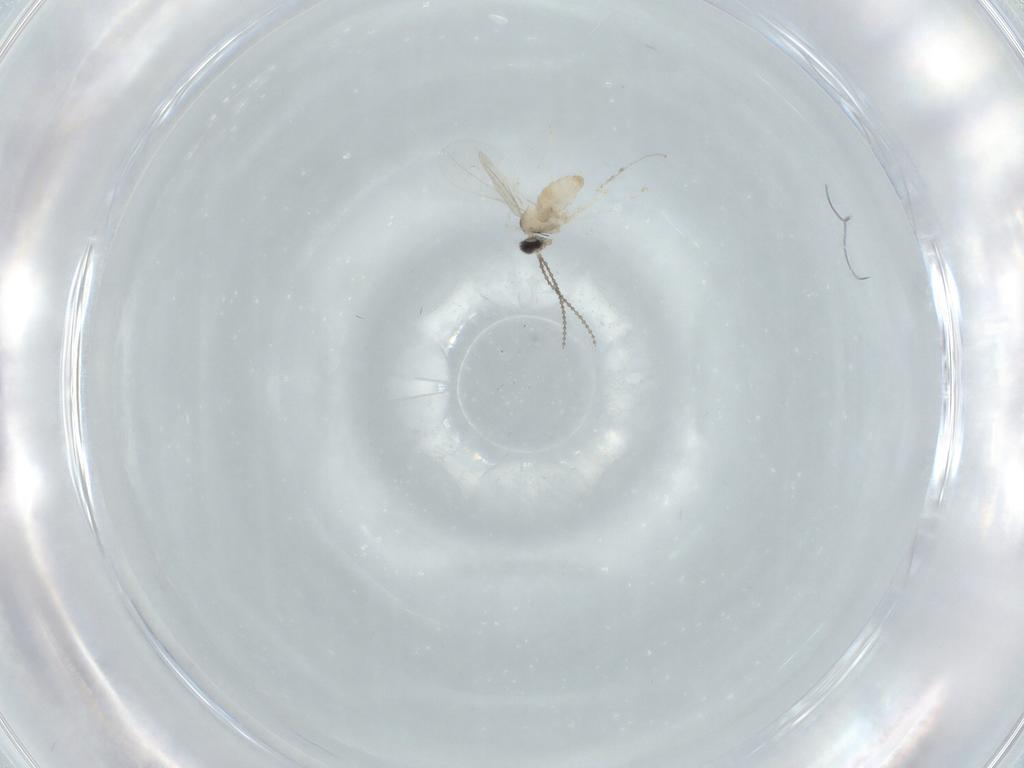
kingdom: Animalia
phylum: Arthropoda
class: Insecta
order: Diptera
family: Cecidomyiidae
